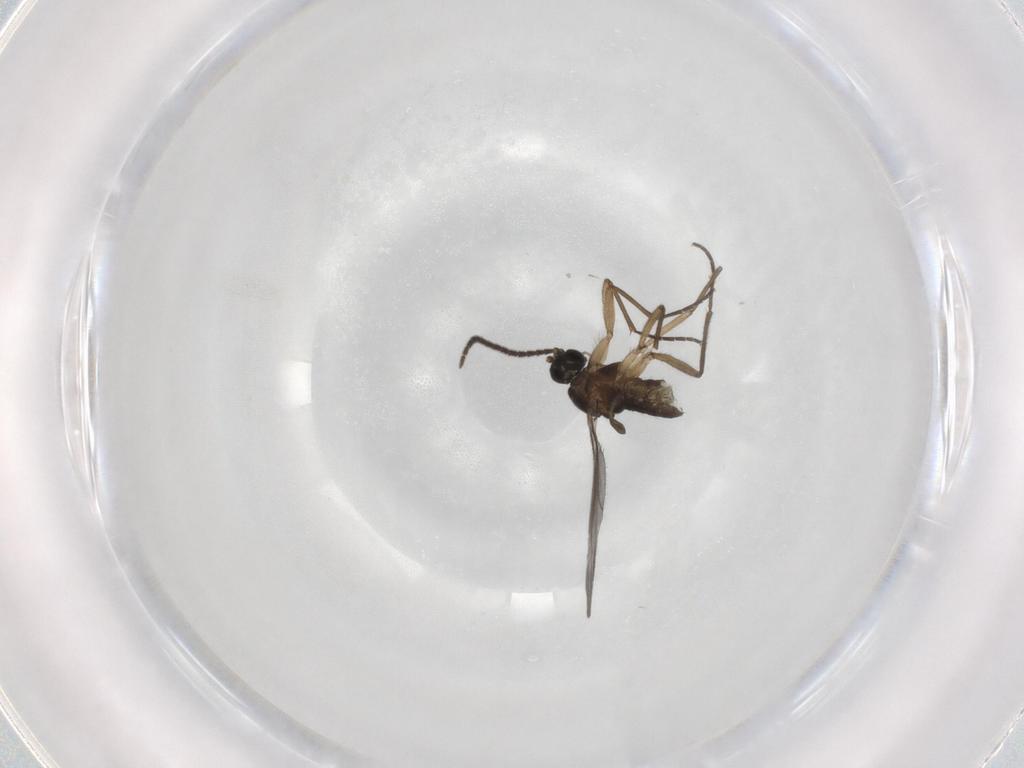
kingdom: Animalia
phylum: Arthropoda
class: Insecta
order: Diptera
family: Sciaridae
